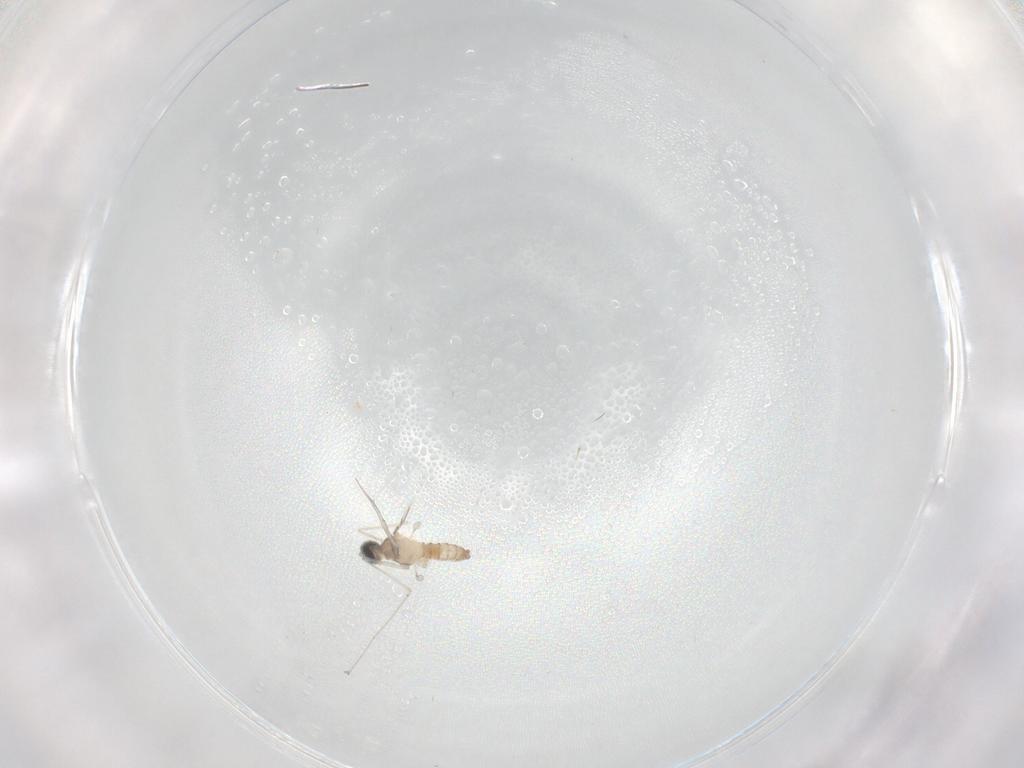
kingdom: Animalia
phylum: Arthropoda
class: Insecta
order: Diptera
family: Cecidomyiidae
